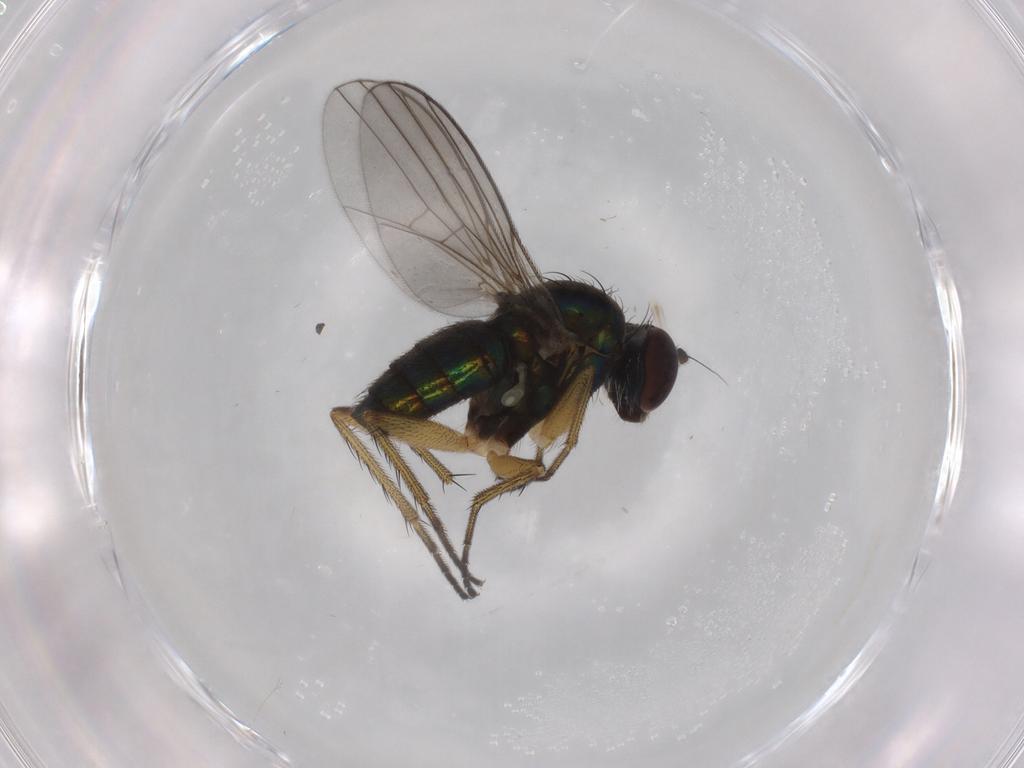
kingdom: Animalia
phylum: Arthropoda
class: Insecta
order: Diptera
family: Dolichopodidae
